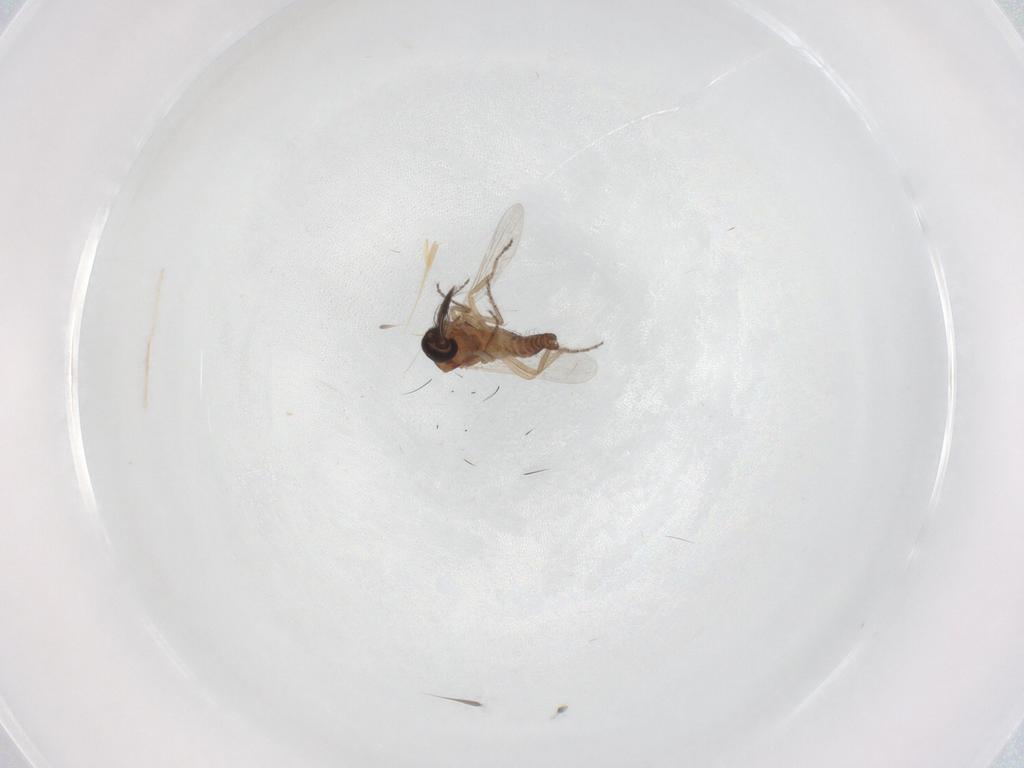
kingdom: Animalia
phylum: Arthropoda
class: Insecta
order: Diptera
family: Ceratopogonidae
